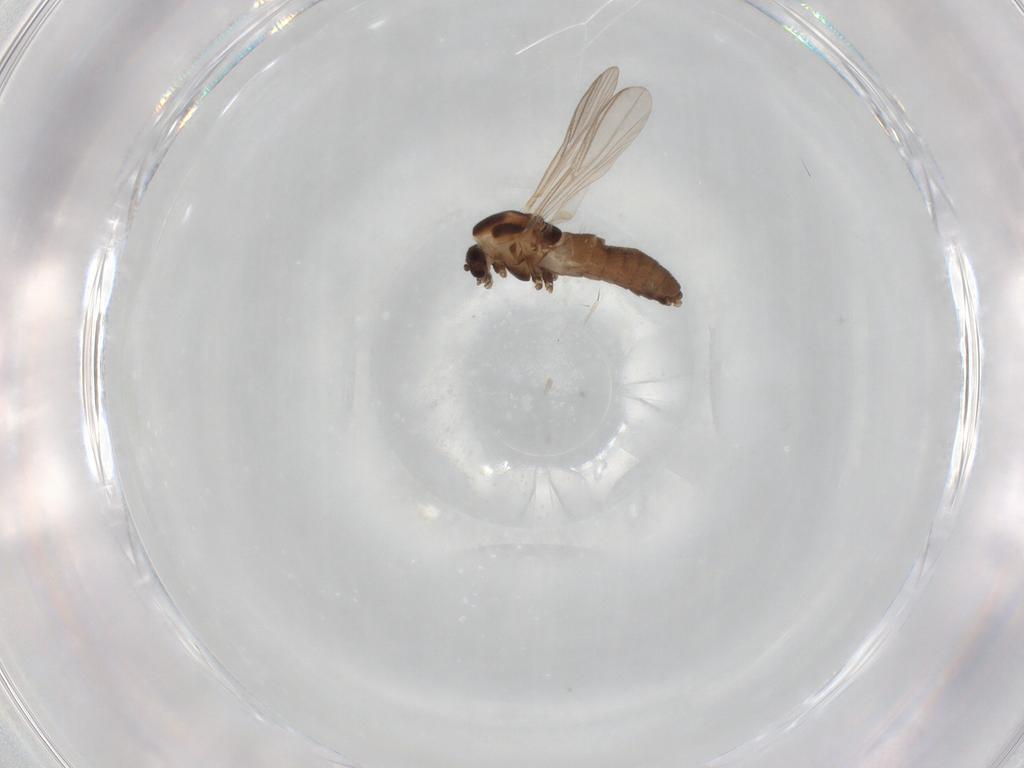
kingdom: Animalia
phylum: Arthropoda
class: Insecta
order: Diptera
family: Chironomidae
